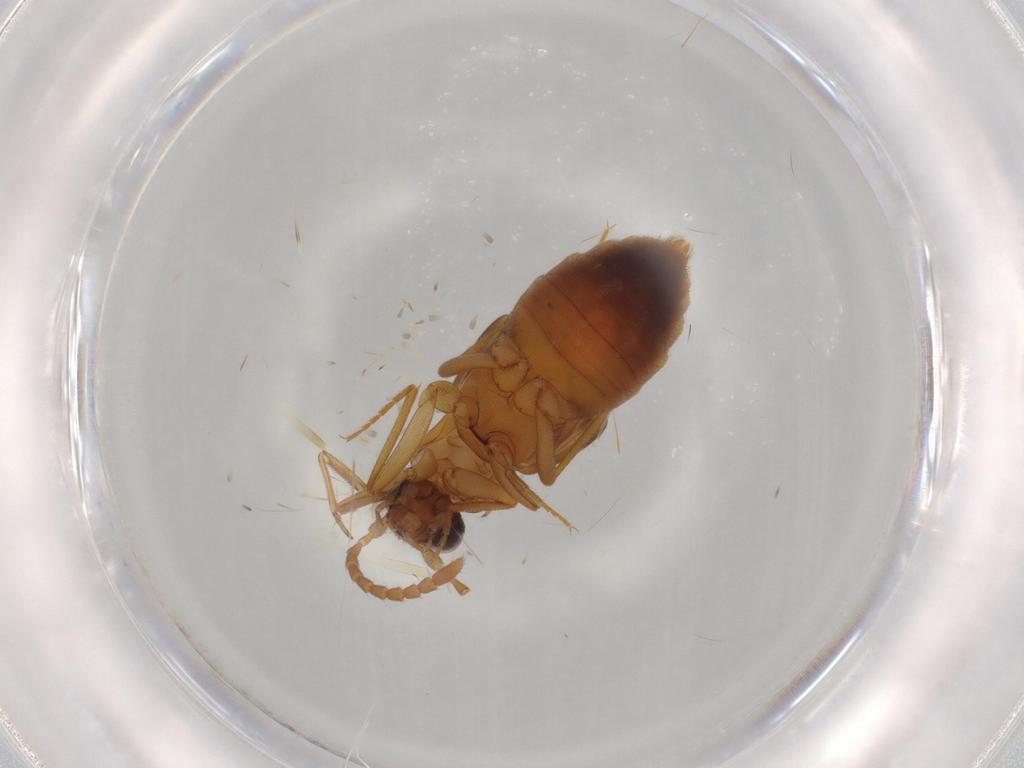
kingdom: Animalia
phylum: Arthropoda
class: Insecta
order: Coleoptera
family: Staphylinidae
